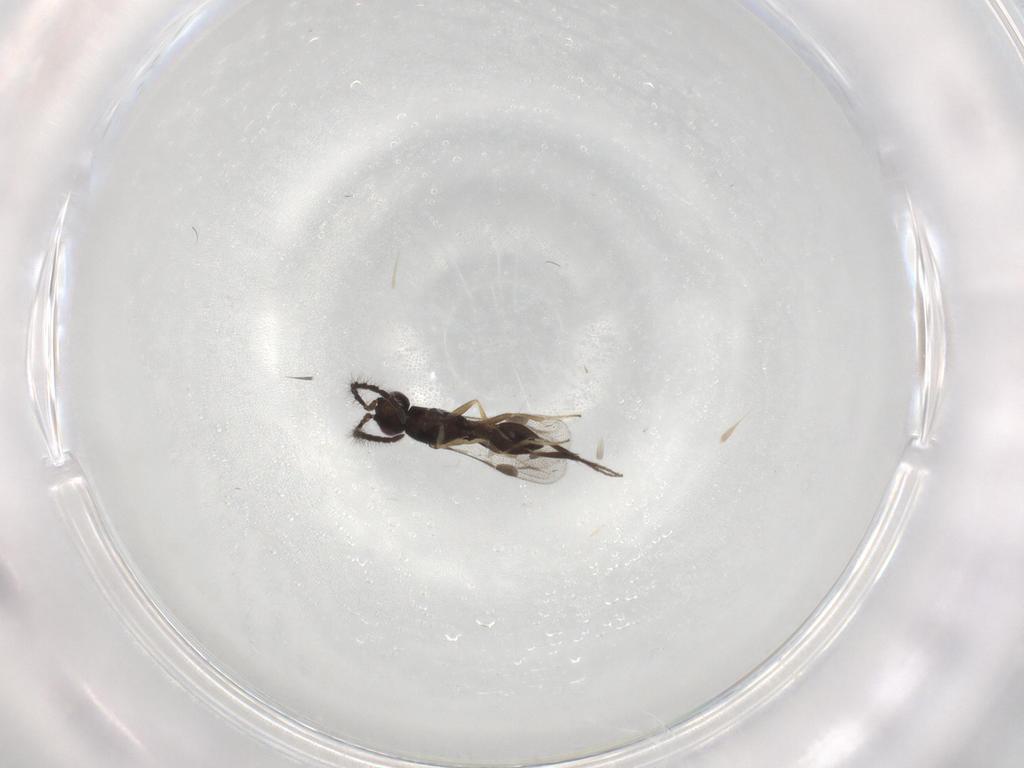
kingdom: Animalia
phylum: Arthropoda
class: Insecta
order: Hymenoptera
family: Megaspilidae
